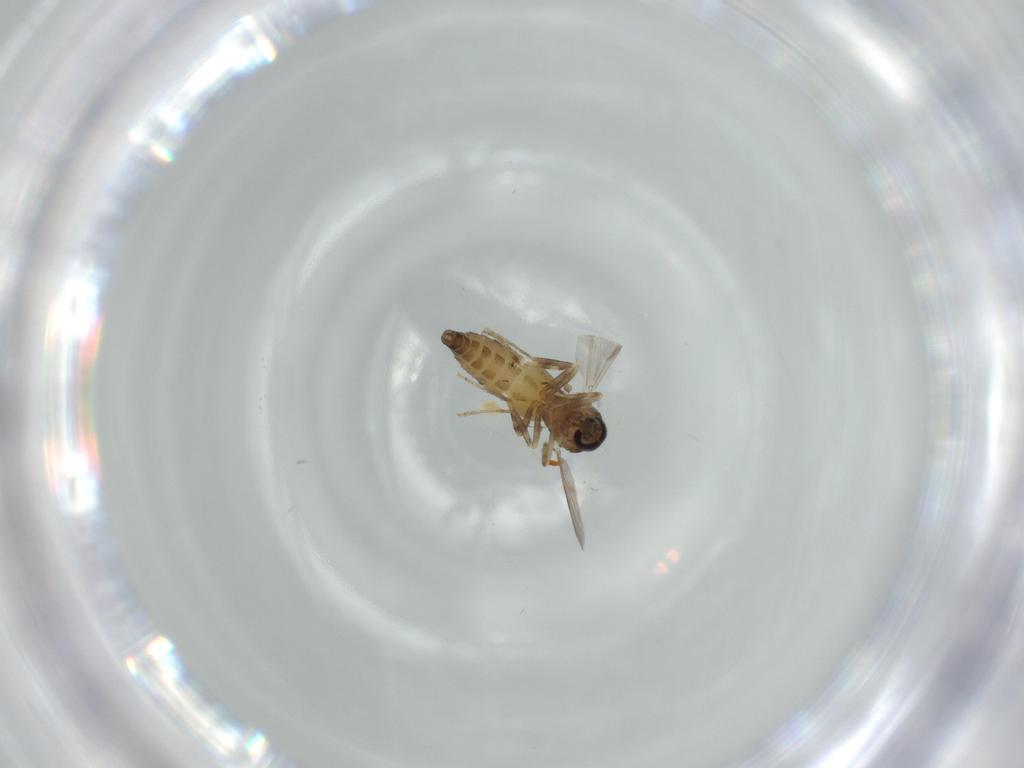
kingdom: Animalia
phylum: Arthropoda
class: Insecta
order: Diptera
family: Ceratopogonidae
